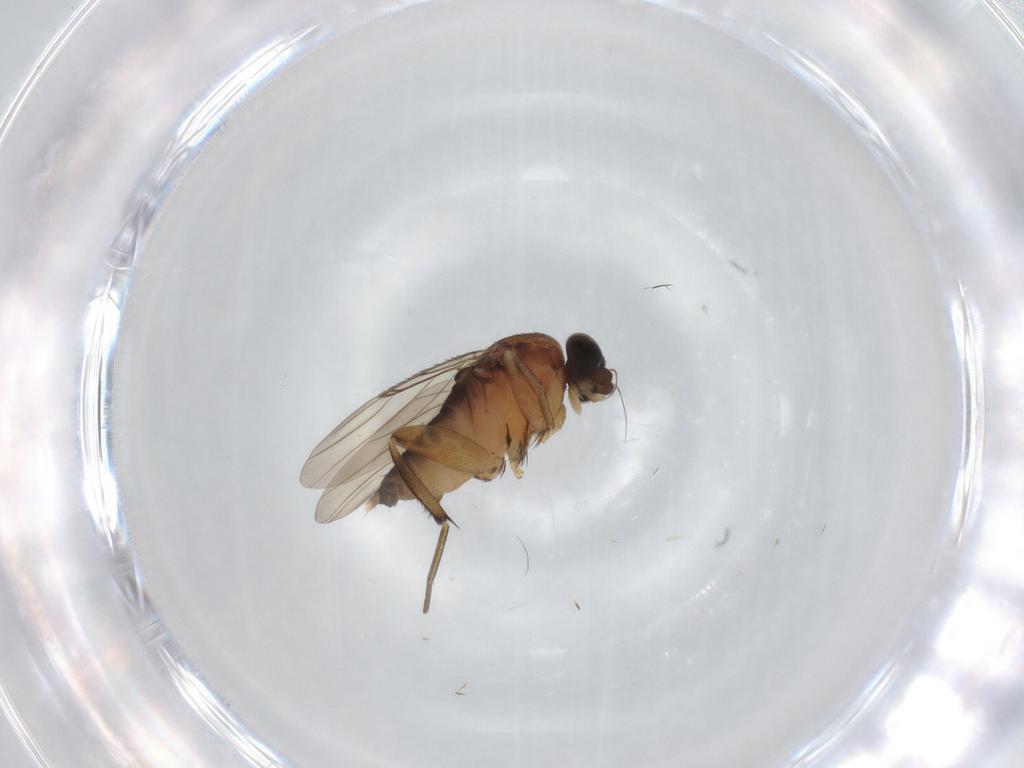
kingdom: Animalia
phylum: Arthropoda
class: Insecta
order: Diptera
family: Phoridae
